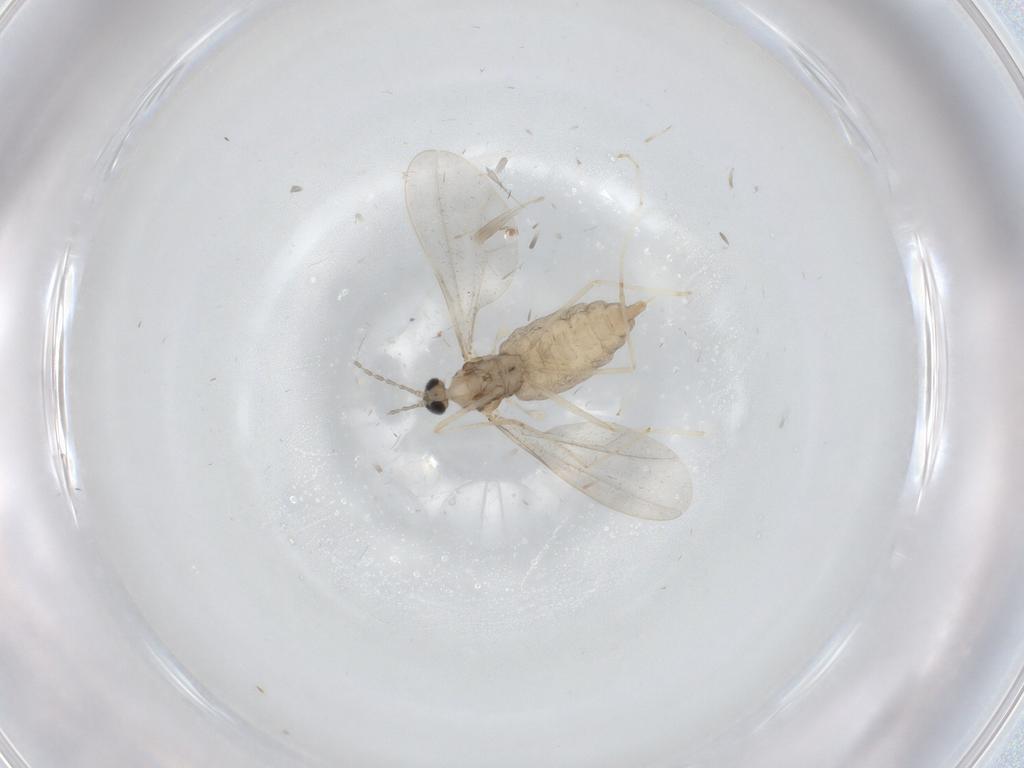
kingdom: Animalia
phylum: Arthropoda
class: Insecta
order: Diptera
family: Cecidomyiidae
